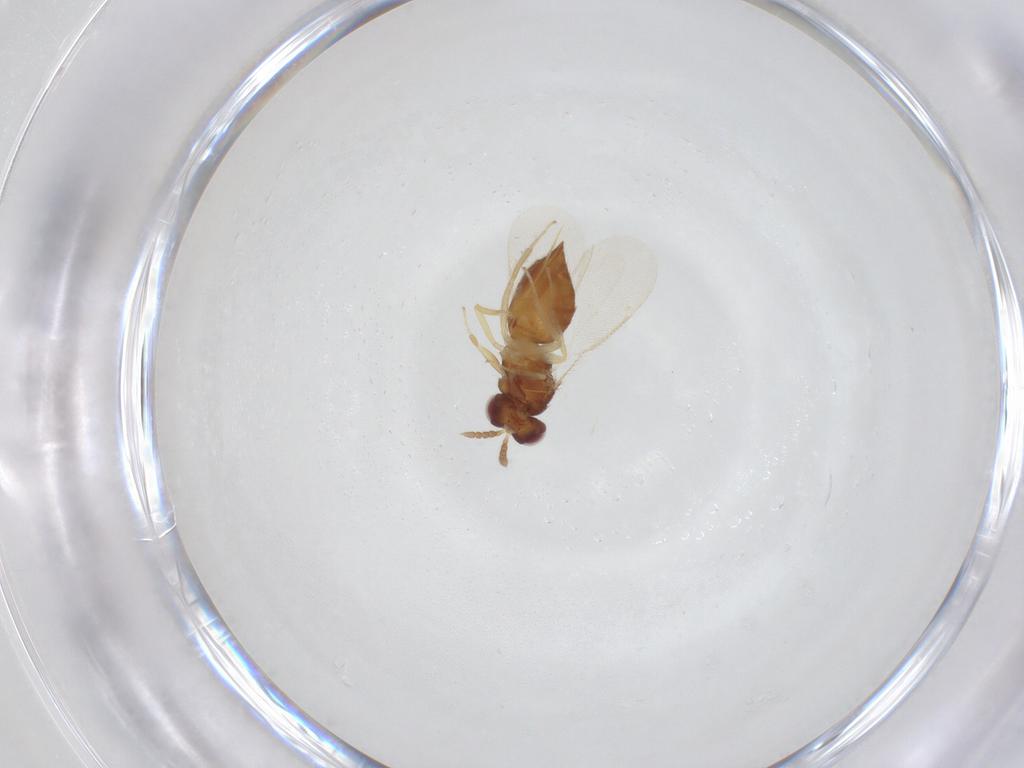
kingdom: Animalia
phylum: Arthropoda
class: Insecta
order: Hymenoptera
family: Eulophidae
